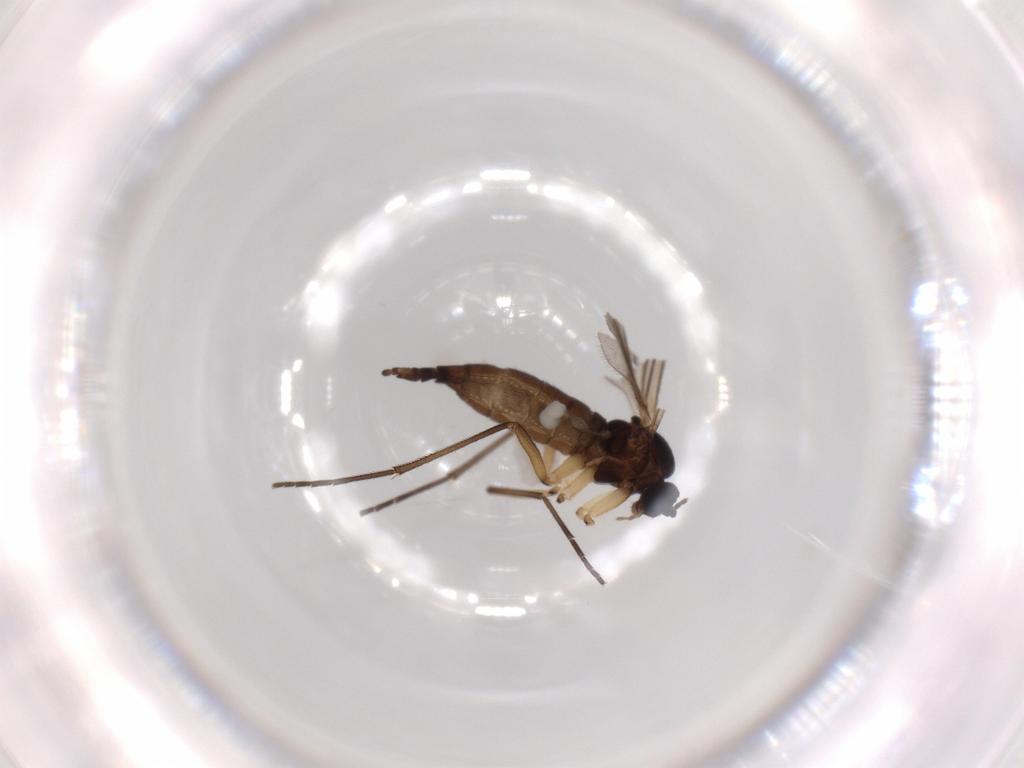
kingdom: Animalia
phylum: Arthropoda
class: Insecta
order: Diptera
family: Sciaridae
